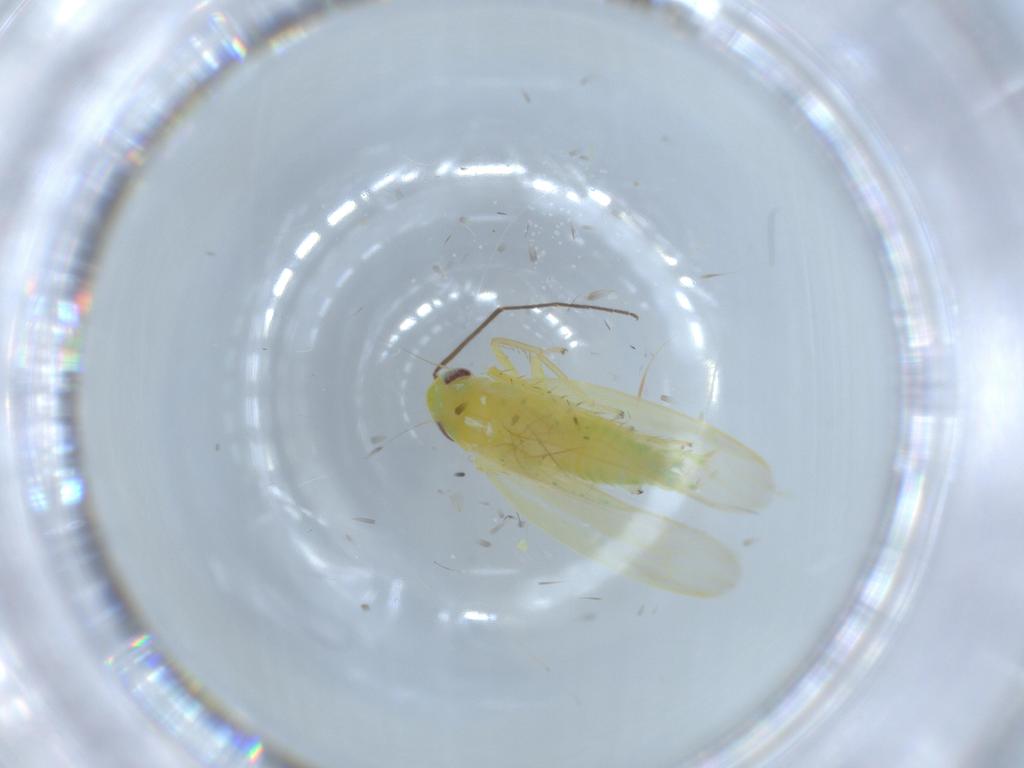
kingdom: Animalia
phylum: Arthropoda
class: Insecta
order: Hemiptera
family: Cicadellidae
